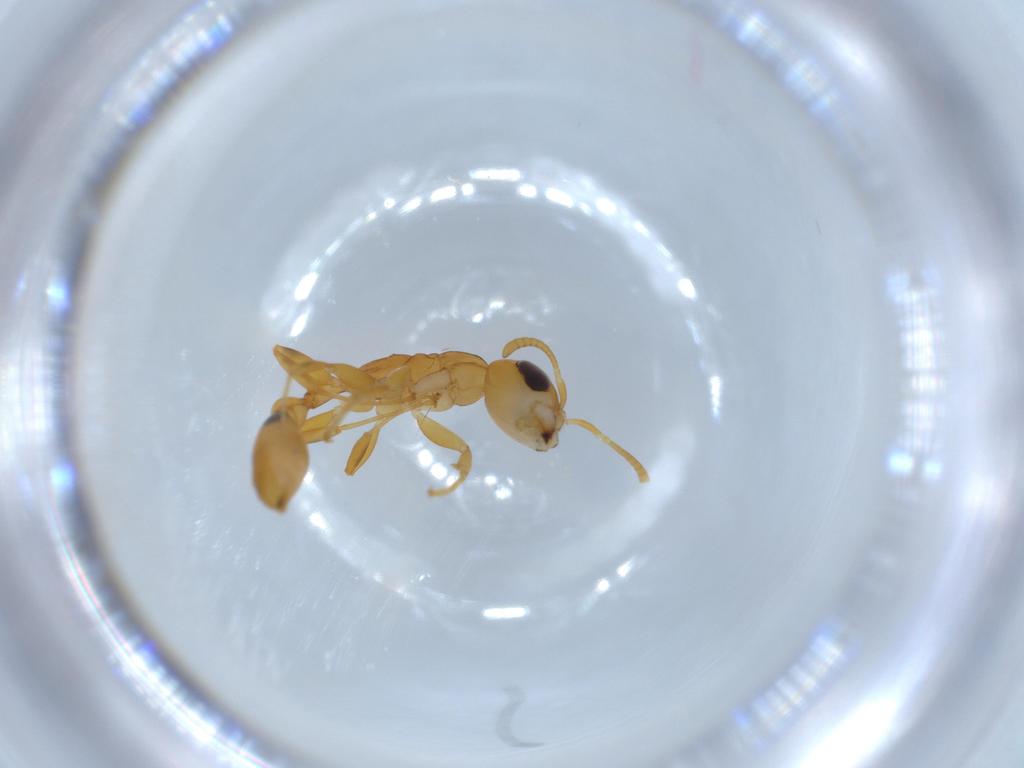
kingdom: Animalia
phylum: Arthropoda
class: Insecta
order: Hymenoptera
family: Formicidae
